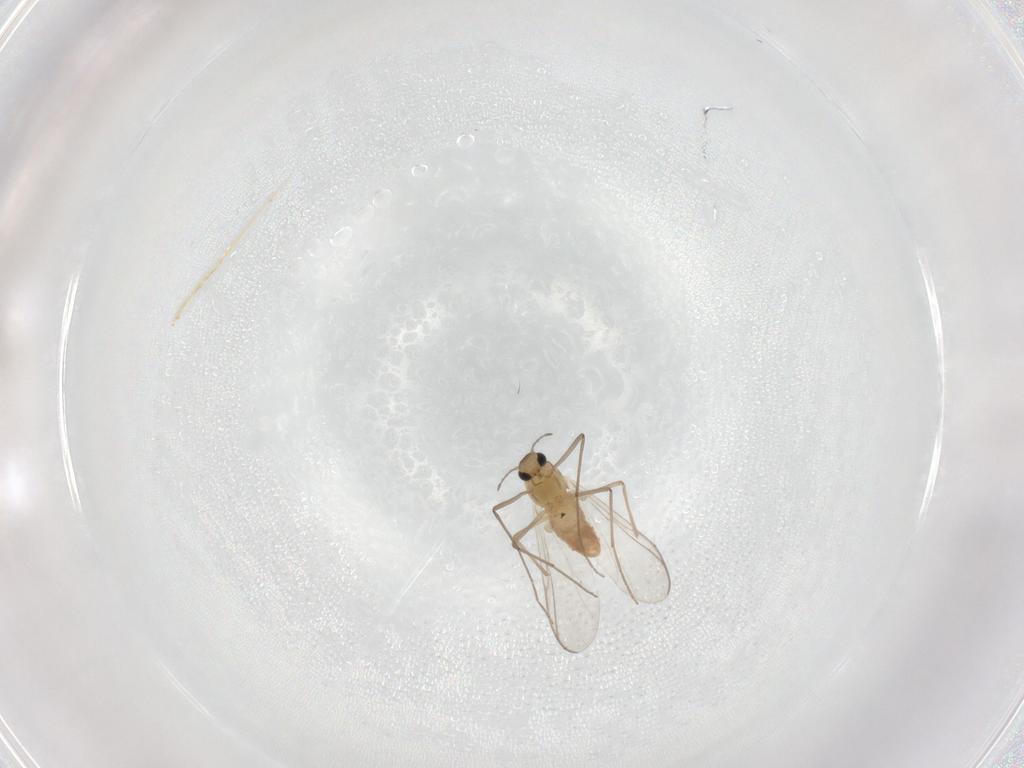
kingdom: Animalia
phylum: Arthropoda
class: Insecta
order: Diptera
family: Chironomidae
